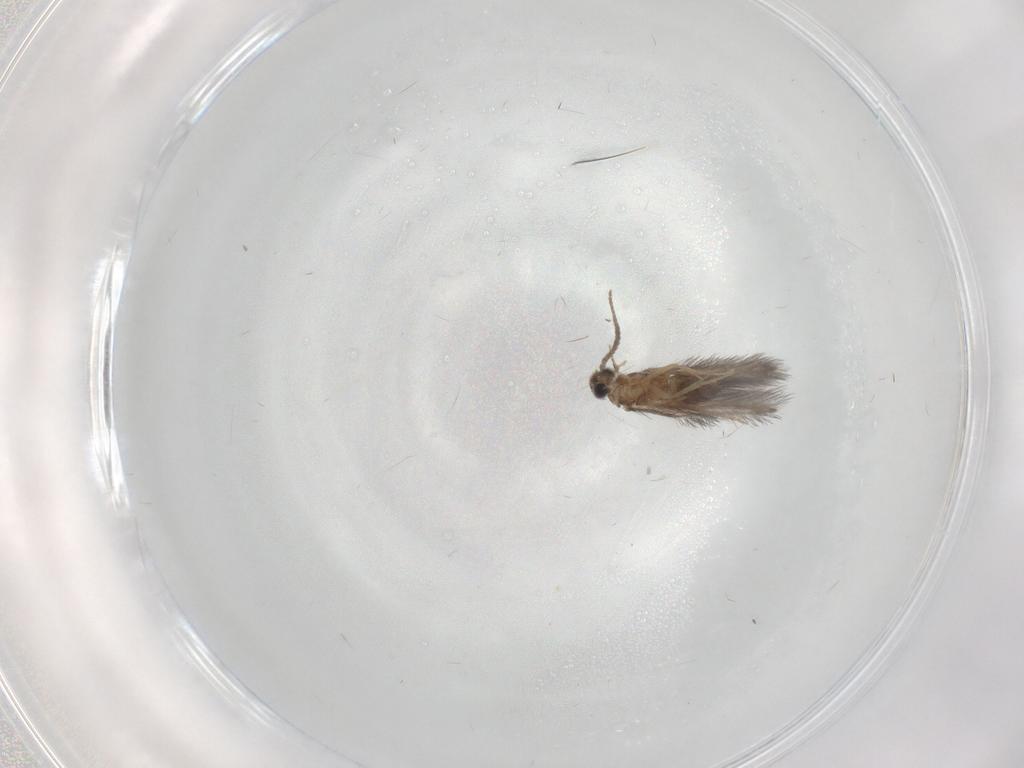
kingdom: Animalia
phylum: Arthropoda
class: Insecta
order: Trichoptera
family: Hydroptilidae
